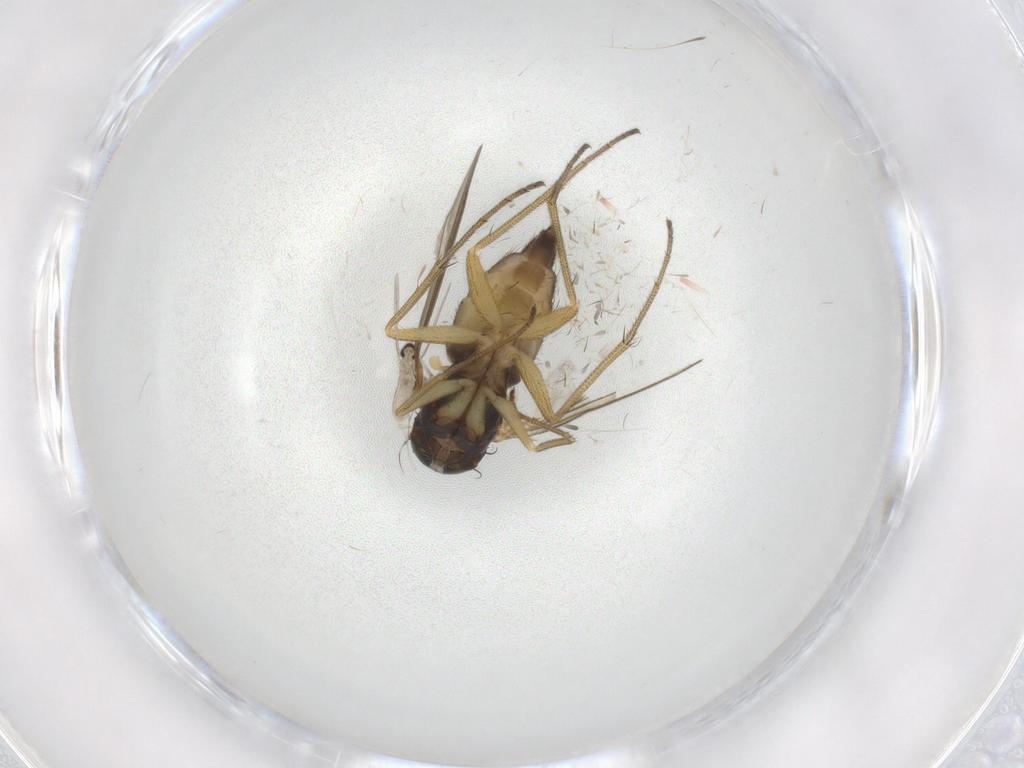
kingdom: Animalia
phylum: Arthropoda
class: Insecta
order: Diptera
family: Dolichopodidae
